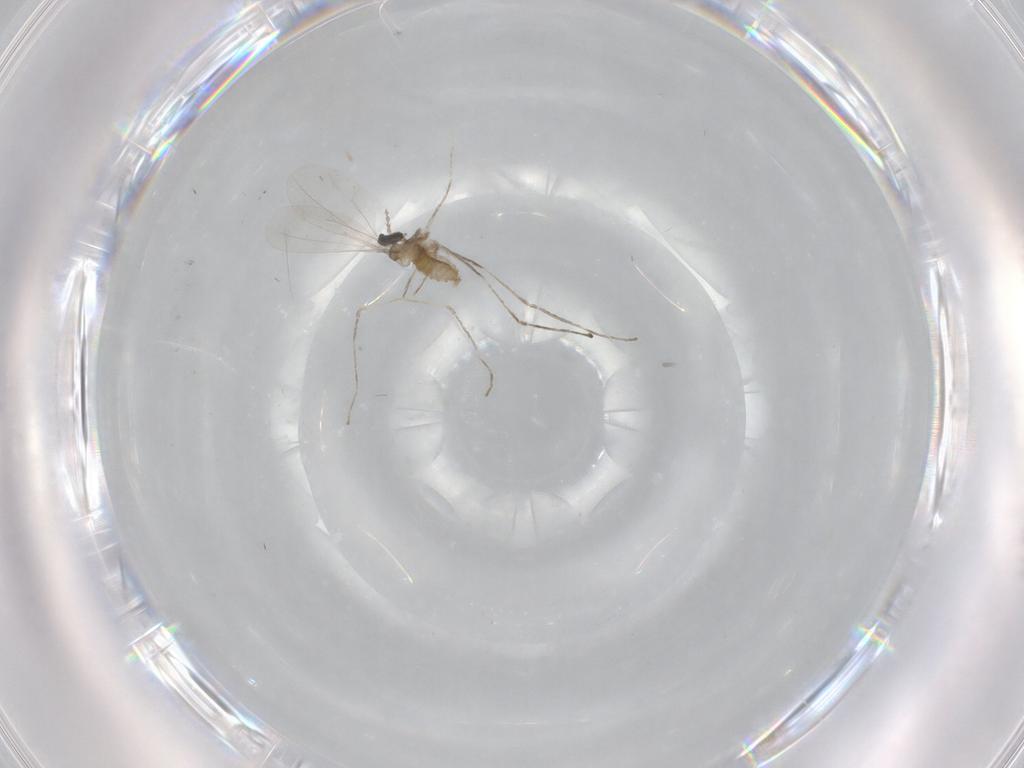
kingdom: Animalia
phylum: Arthropoda
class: Insecta
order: Diptera
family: Cecidomyiidae
